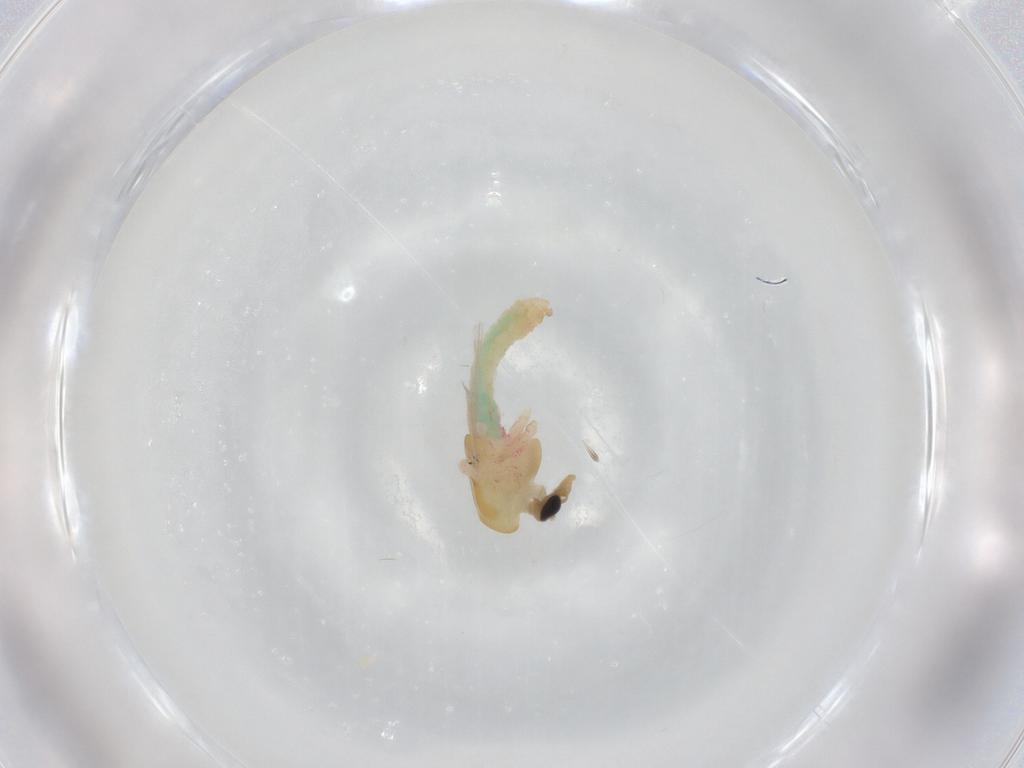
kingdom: Animalia
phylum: Arthropoda
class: Insecta
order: Diptera
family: Chironomidae
